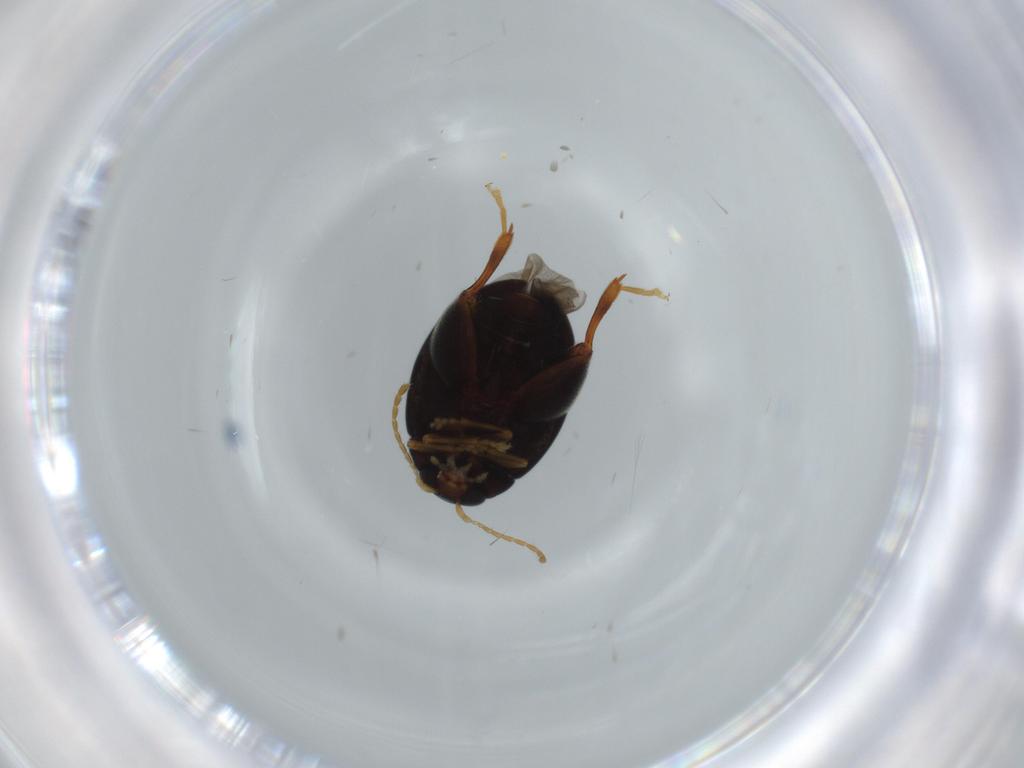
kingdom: Animalia
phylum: Arthropoda
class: Insecta
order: Coleoptera
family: Chrysomelidae
